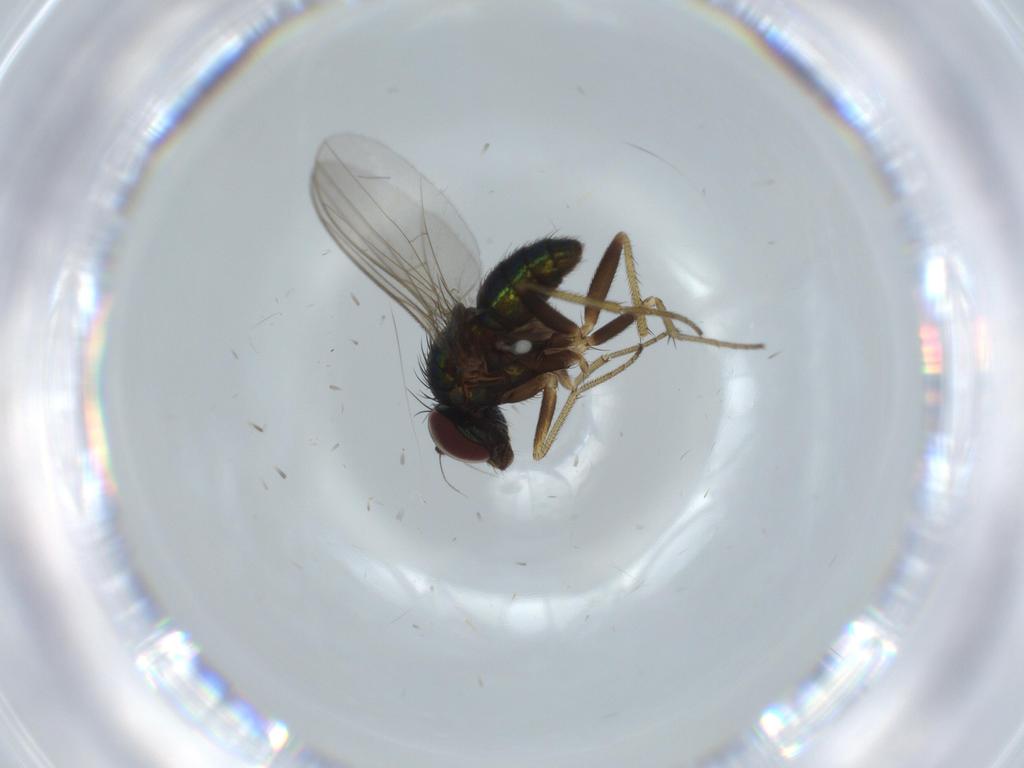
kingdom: Animalia
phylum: Arthropoda
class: Insecta
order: Diptera
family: Dolichopodidae
